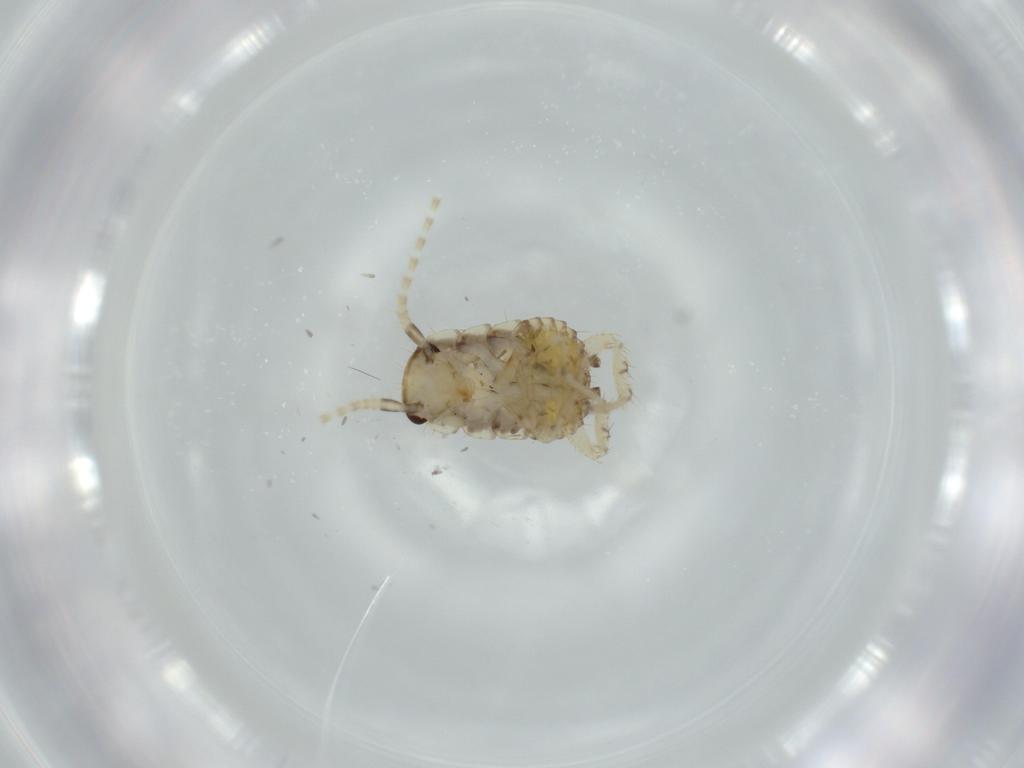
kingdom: Animalia
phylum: Arthropoda
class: Insecta
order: Blattodea
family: Ectobiidae
